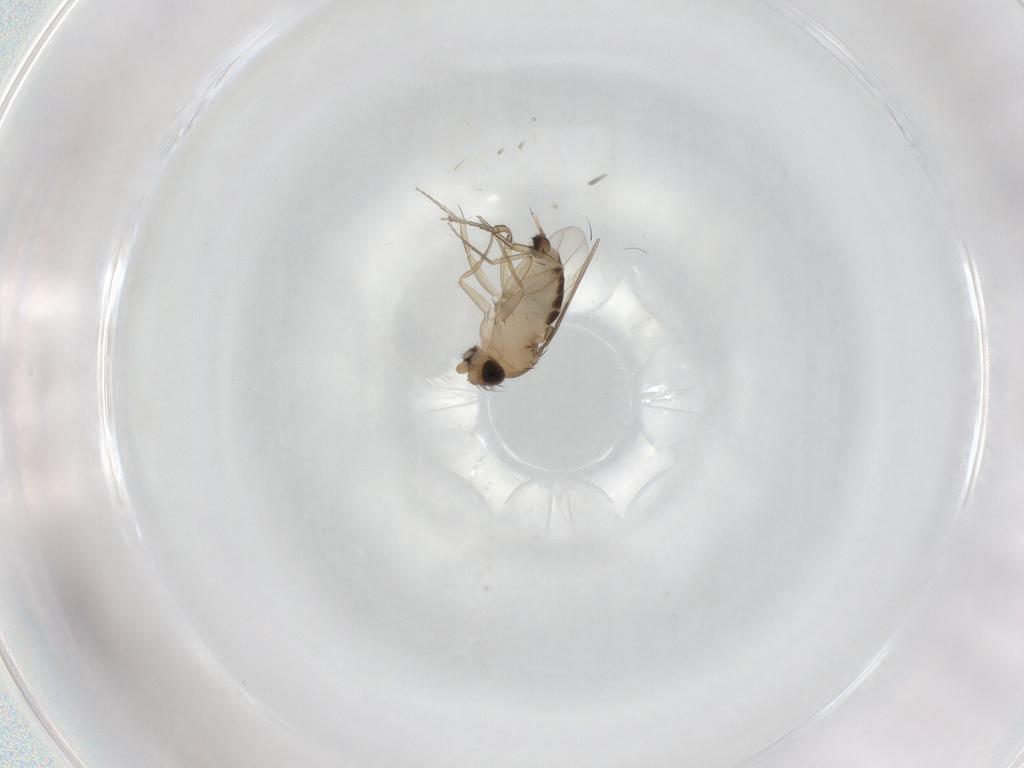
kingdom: Animalia
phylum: Arthropoda
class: Insecta
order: Diptera
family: Phoridae
